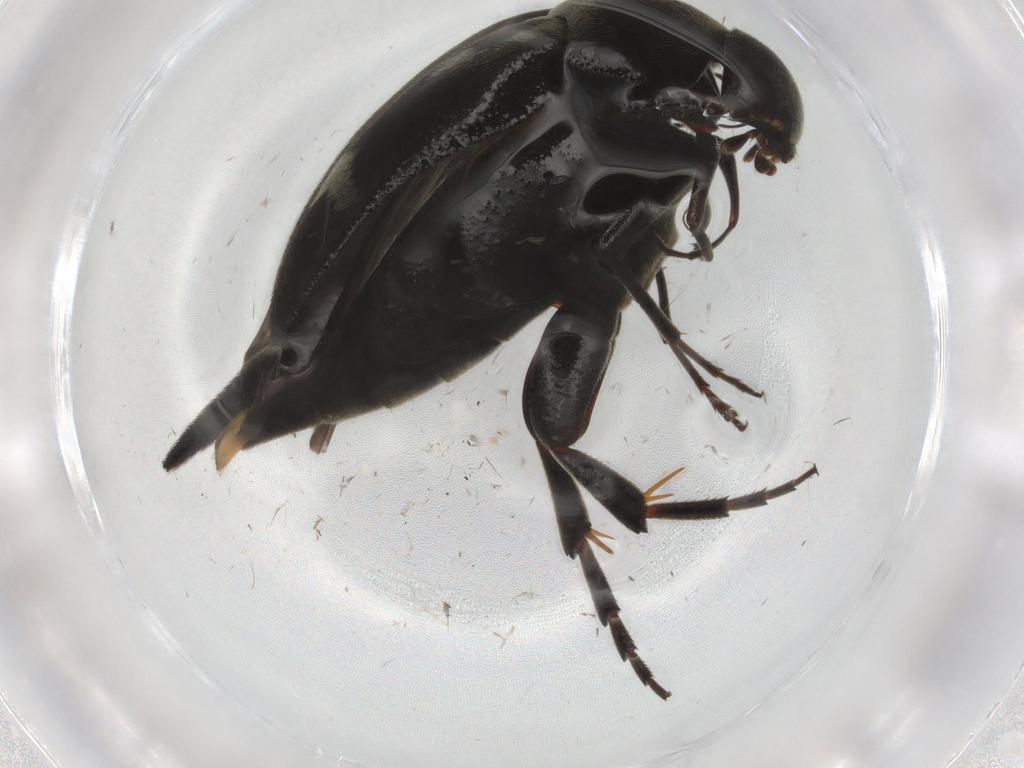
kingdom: Animalia
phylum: Arthropoda
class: Insecta
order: Coleoptera
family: Mordellidae
